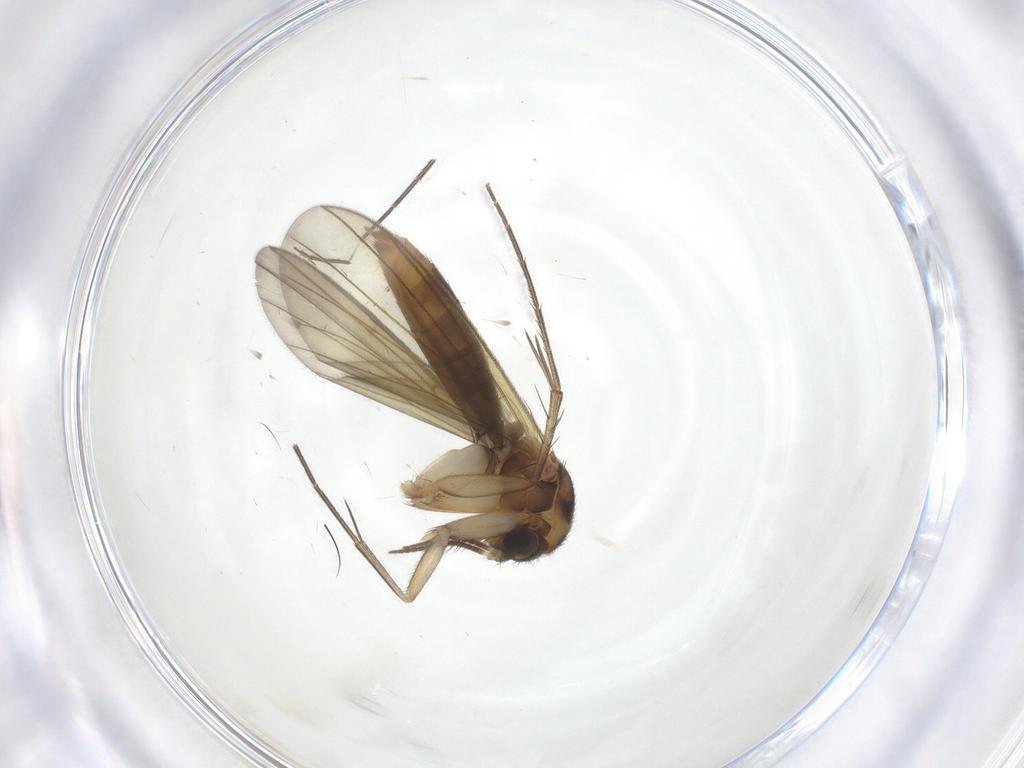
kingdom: Animalia
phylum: Arthropoda
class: Insecta
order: Diptera
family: Mycetophilidae
